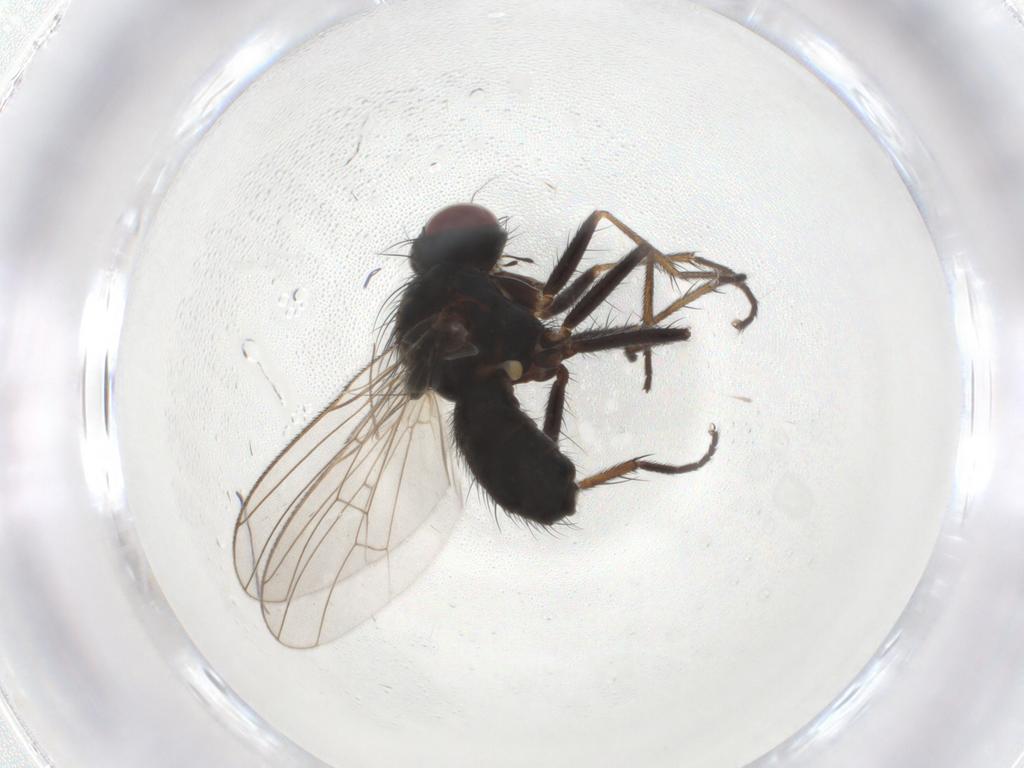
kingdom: Animalia
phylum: Arthropoda
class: Insecta
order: Diptera
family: Muscidae
